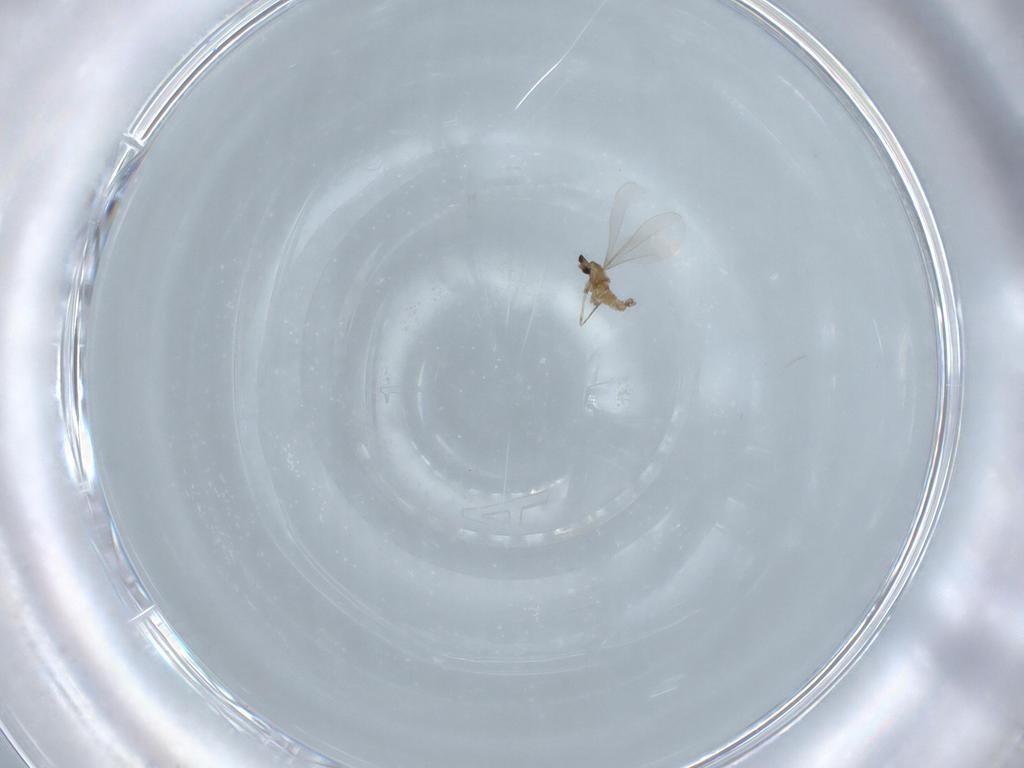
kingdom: Animalia
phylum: Arthropoda
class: Insecta
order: Diptera
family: Cecidomyiidae
